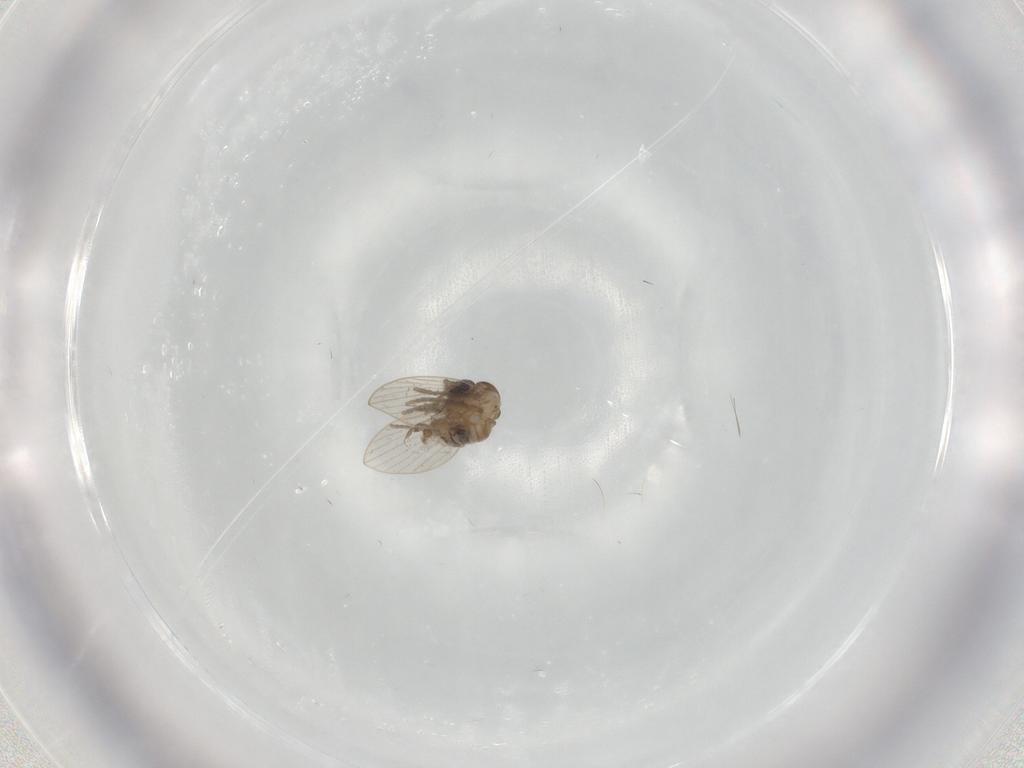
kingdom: Animalia
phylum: Arthropoda
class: Insecta
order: Diptera
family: Psychodidae
